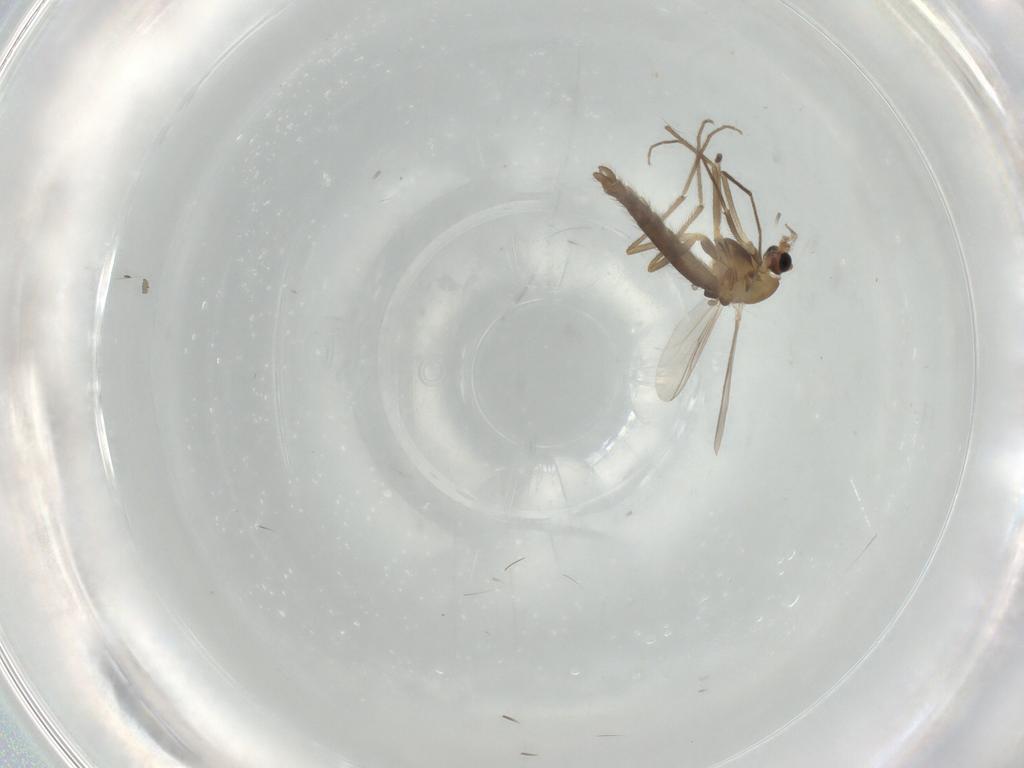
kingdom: Animalia
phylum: Arthropoda
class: Insecta
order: Diptera
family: Chironomidae
